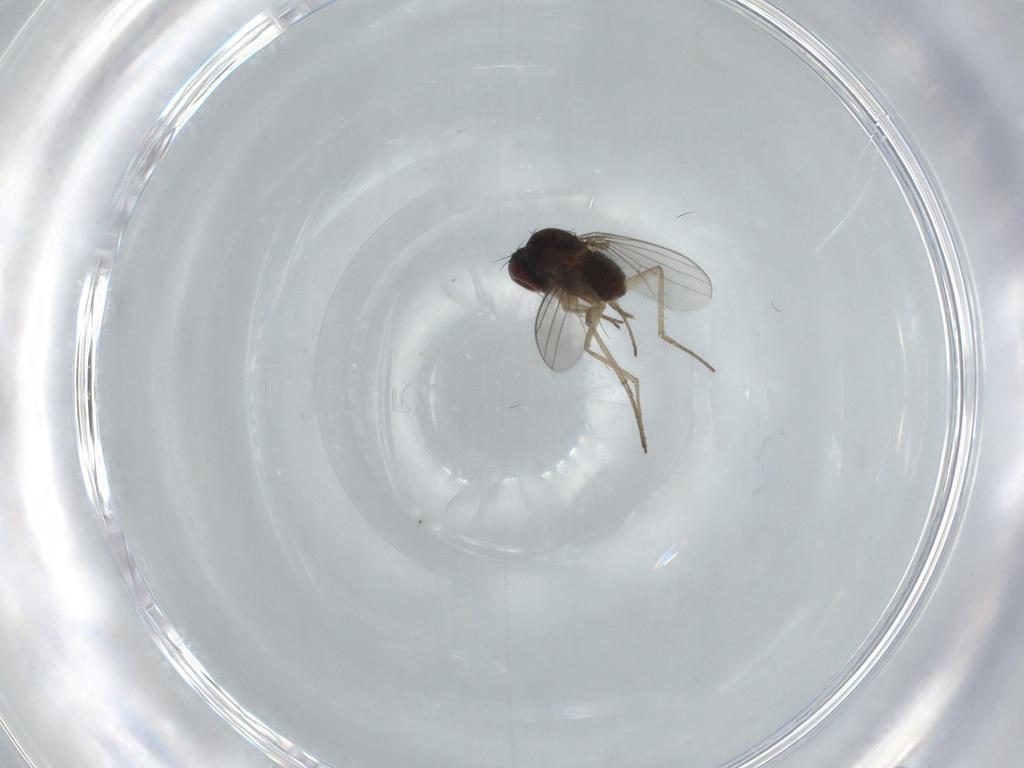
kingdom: Animalia
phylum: Arthropoda
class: Insecta
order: Diptera
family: Dolichopodidae
